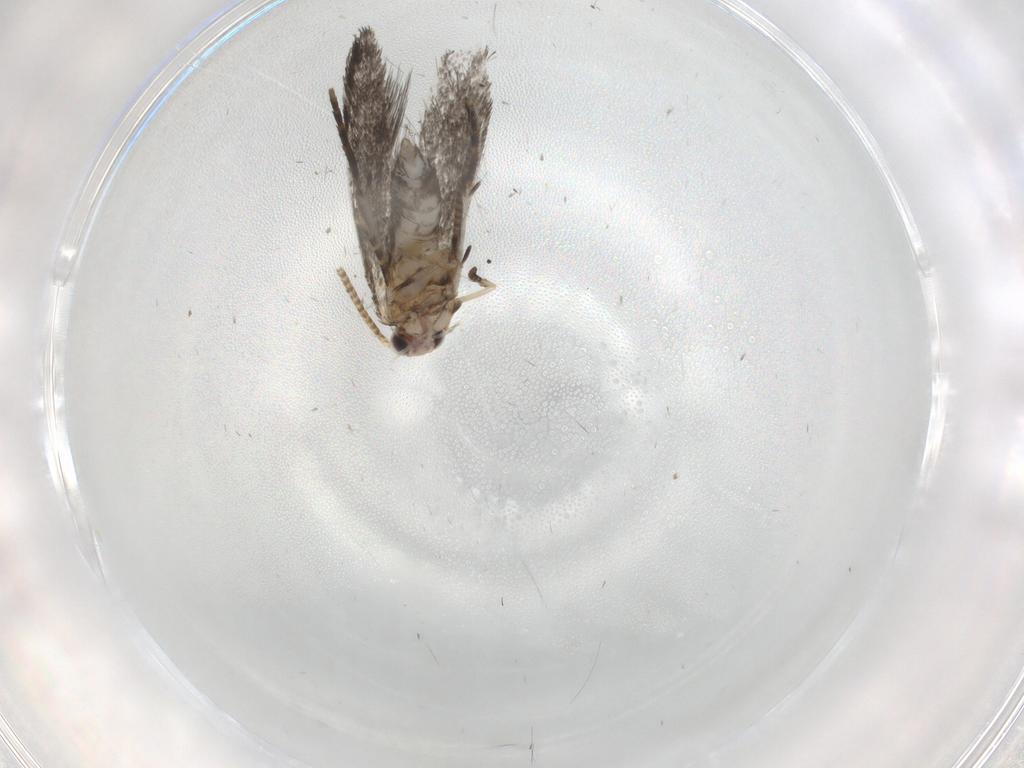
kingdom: Animalia
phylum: Arthropoda
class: Insecta
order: Lepidoptera
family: Tineidae
